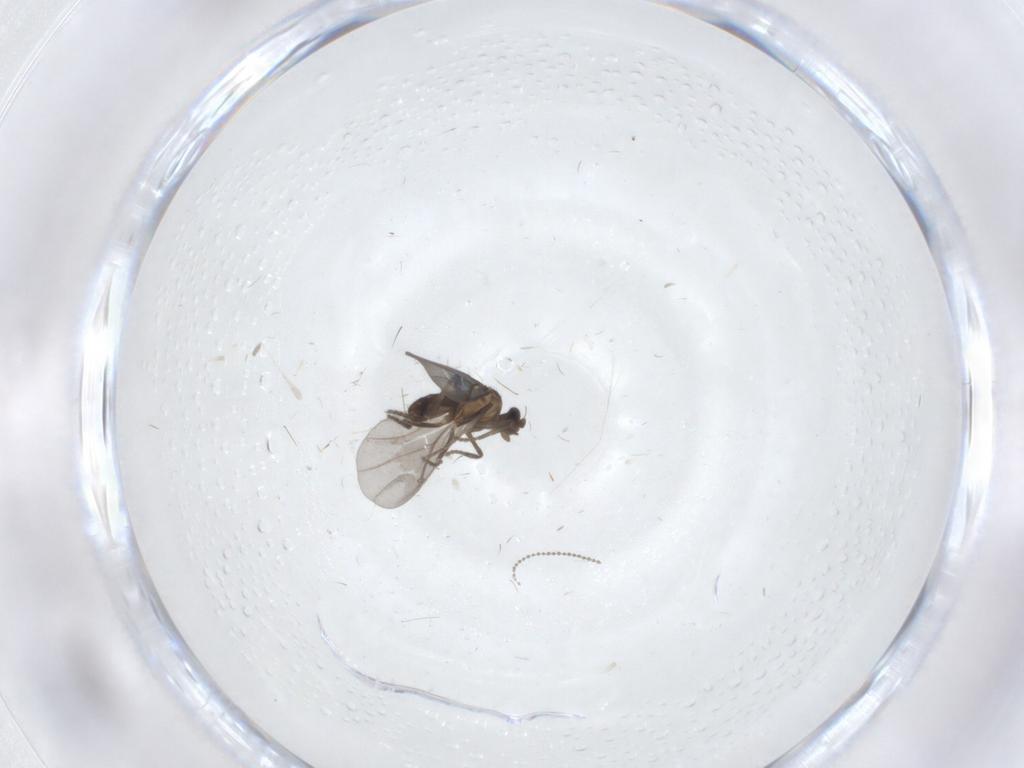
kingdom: Animalia
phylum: Arthropoda
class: Insecta
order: Diptera
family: Phoridae
